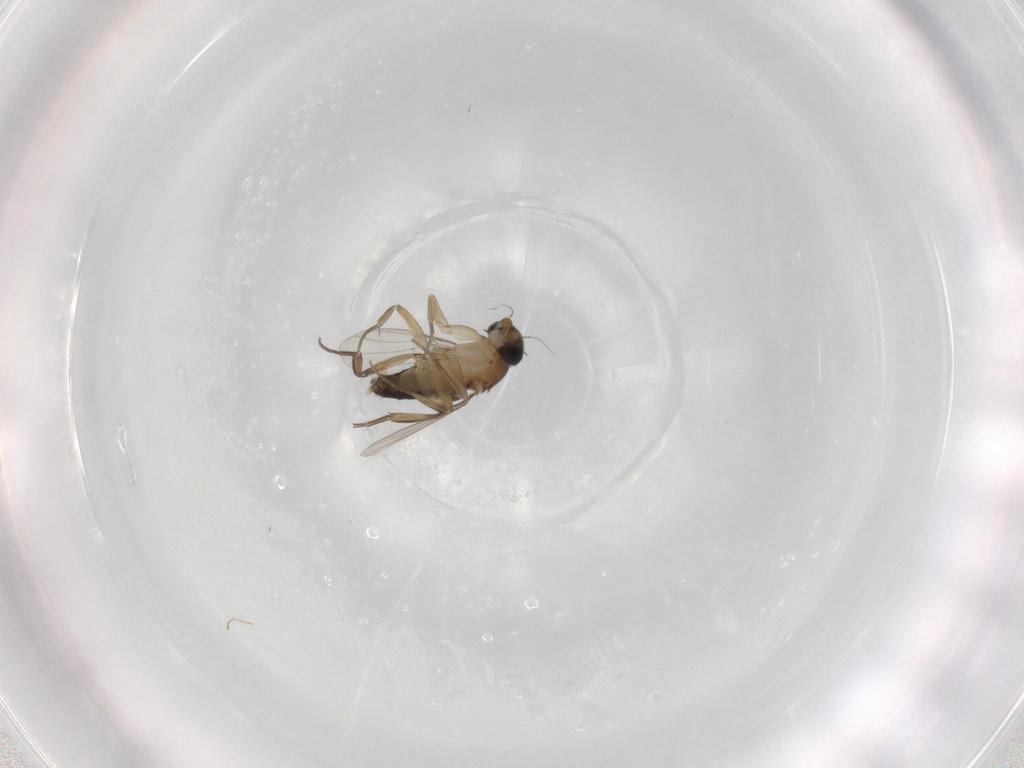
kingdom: Animalia
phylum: Arthropoda
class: Insecta
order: Diptera
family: Phoridae
